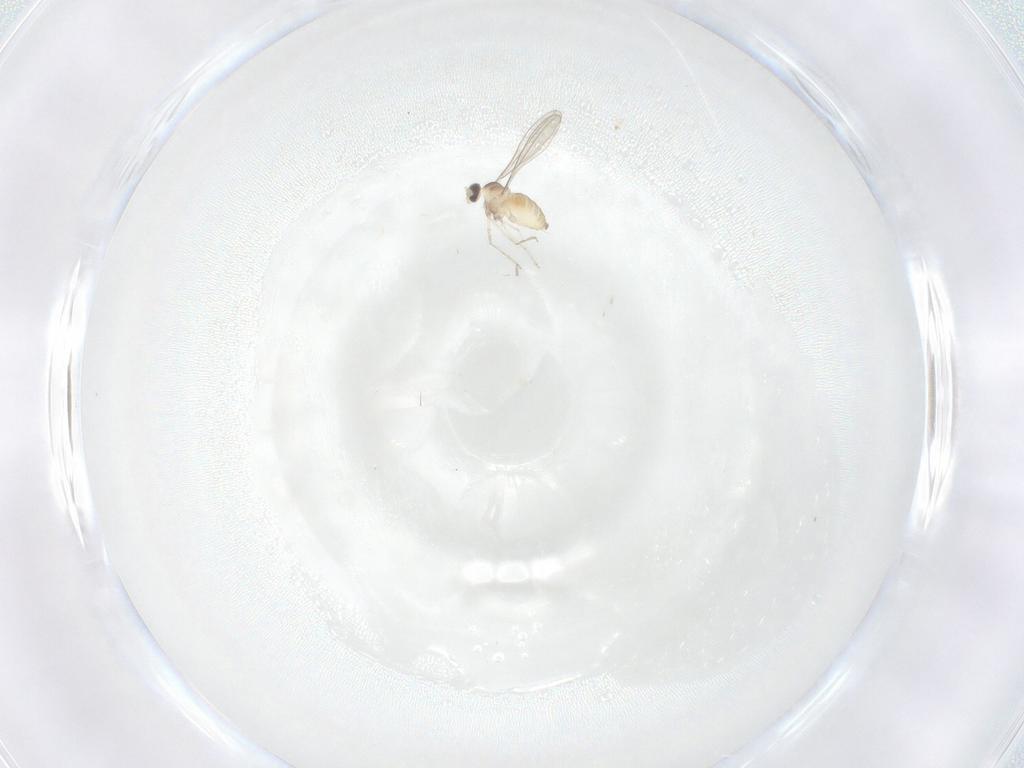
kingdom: Animalia
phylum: Arthropoda
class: Insecta
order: Diptera
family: Cecidomyiidae
